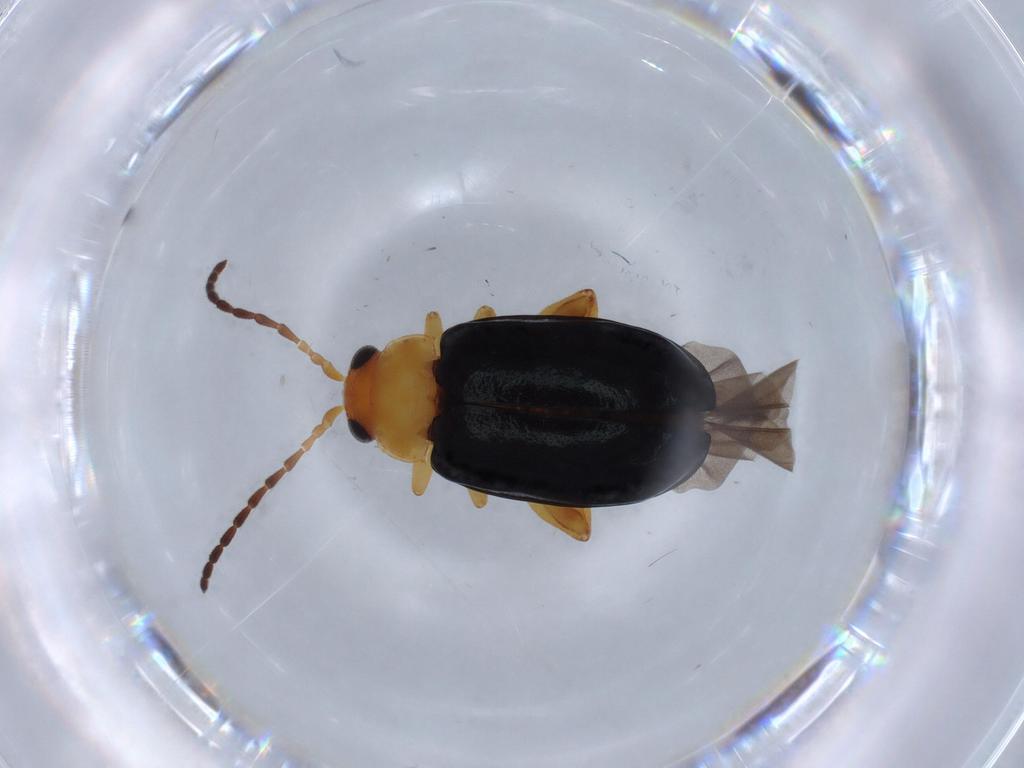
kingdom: Animalia
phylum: Arthropoda
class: Insecta
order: Coleoptera
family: Chrysomelidae
